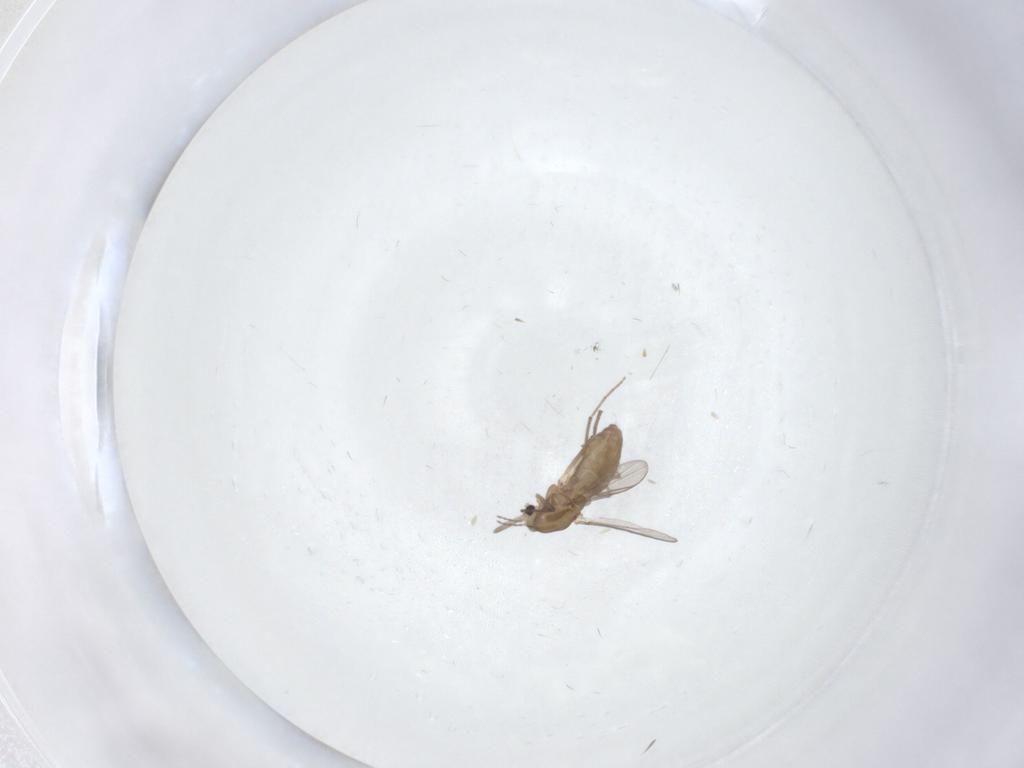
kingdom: Animalia
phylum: Arthropoda
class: Insecta
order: Diptera
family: Chironomidae
